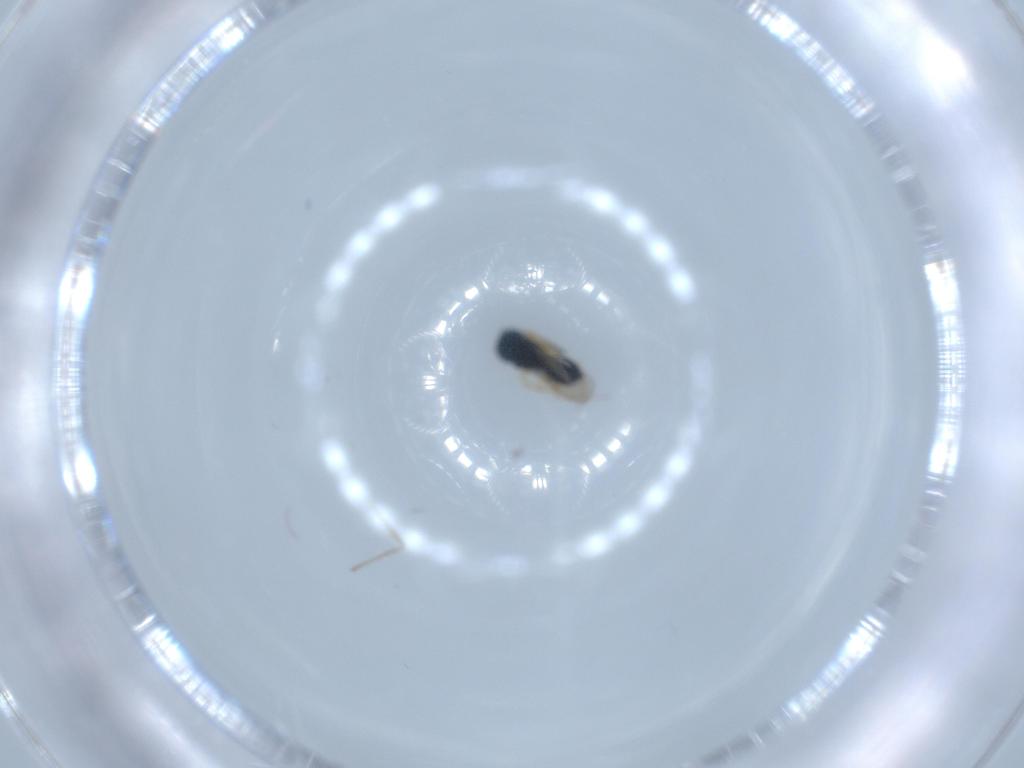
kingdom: Animalia
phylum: Arthropoda
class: Insecta
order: Hymenoptera
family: Scelionidae
